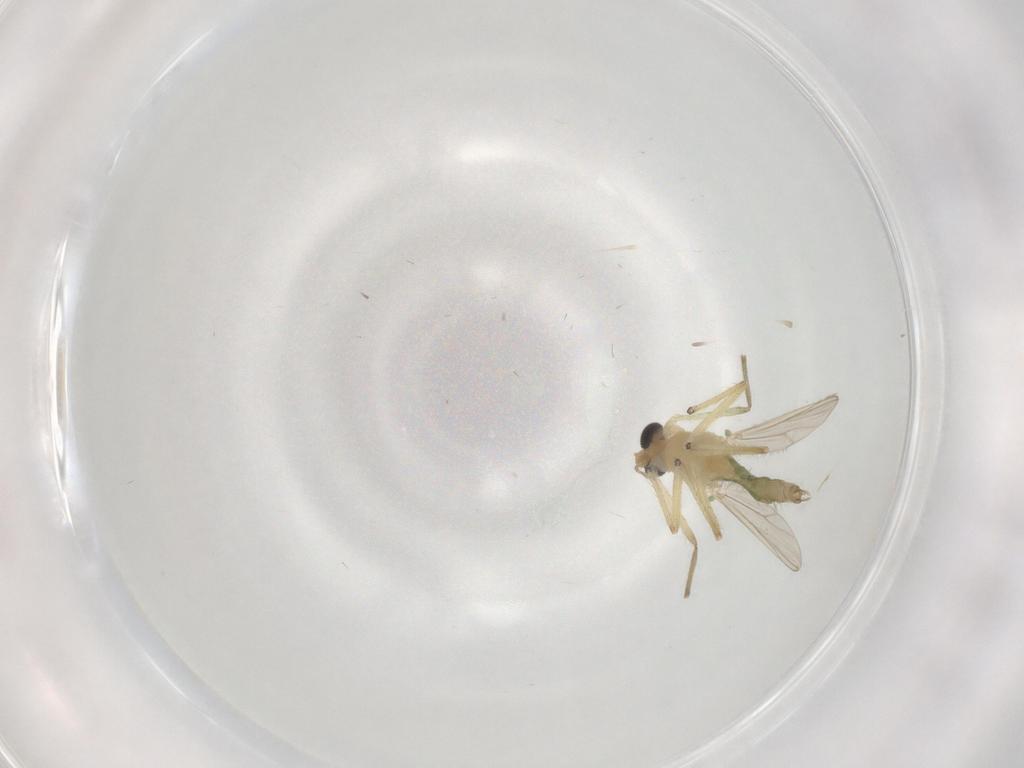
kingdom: Animalia
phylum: Arthropoda
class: Insecta
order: Diptera
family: Chironomidae
